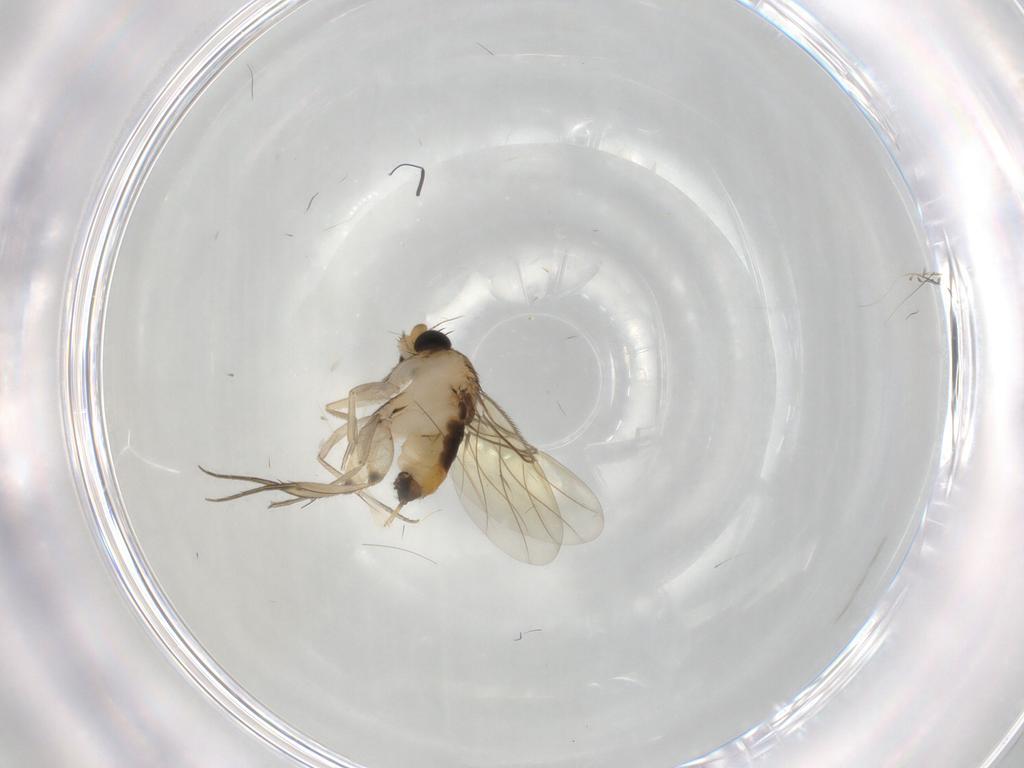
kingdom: Animalia
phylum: Arthropoda
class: Insecta
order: Diptera
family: Phoridae
